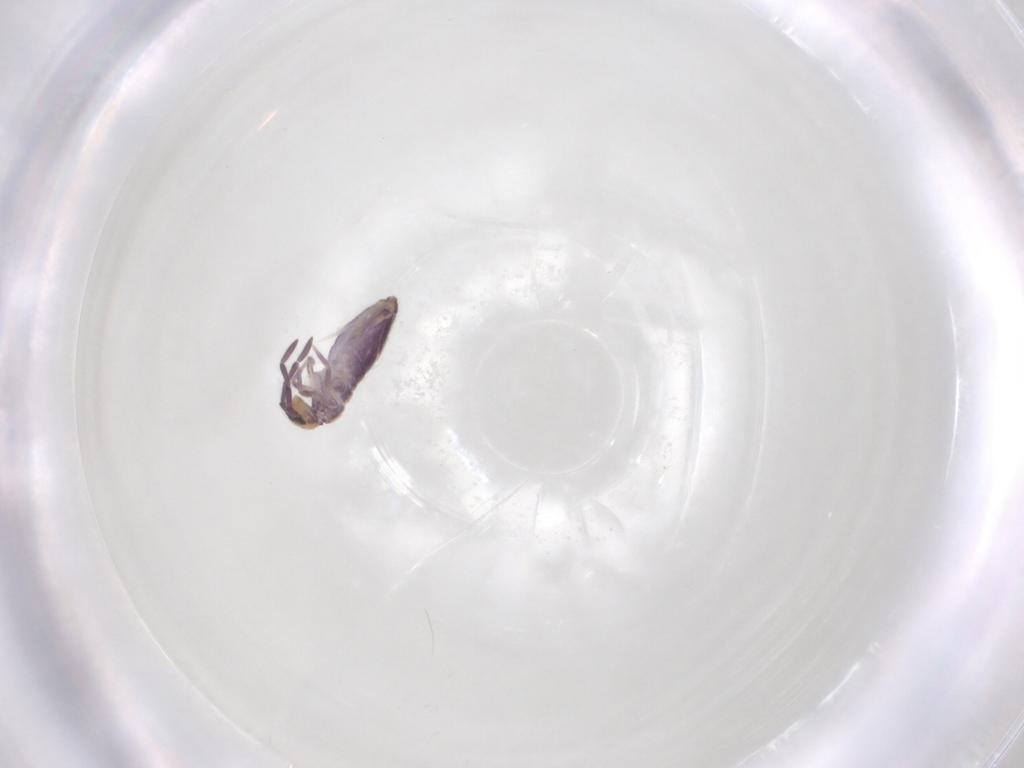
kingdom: Animalia
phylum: Arthropoda
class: Collembola
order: Entomobryomorpha
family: Entomobryidae
